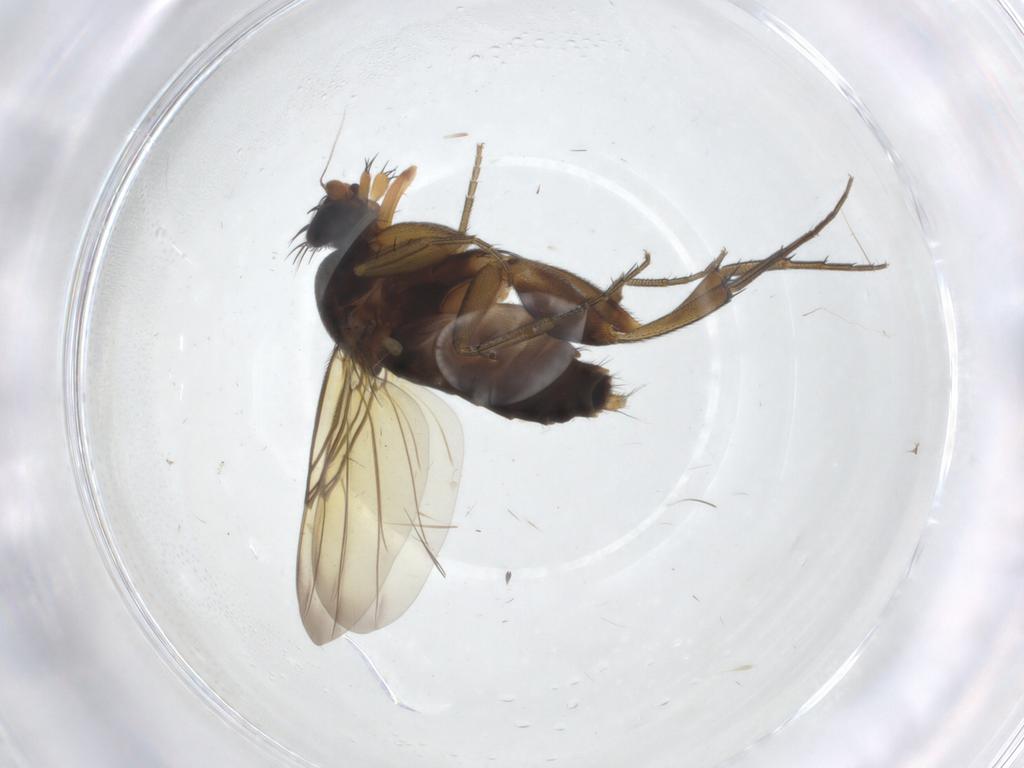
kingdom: Animalia
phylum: Arthropoda
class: Insecta
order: Diptera
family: Phoridae
